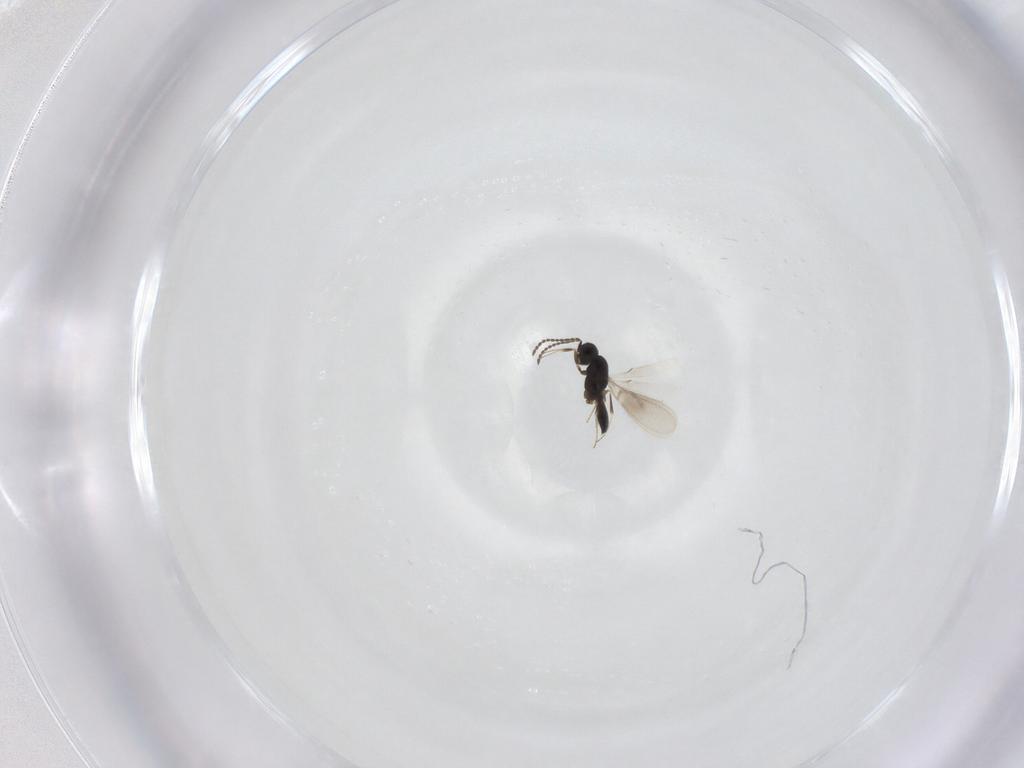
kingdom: Animalia
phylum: Arthropoda
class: Insecta
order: Hymenoptera
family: Scelionidae
